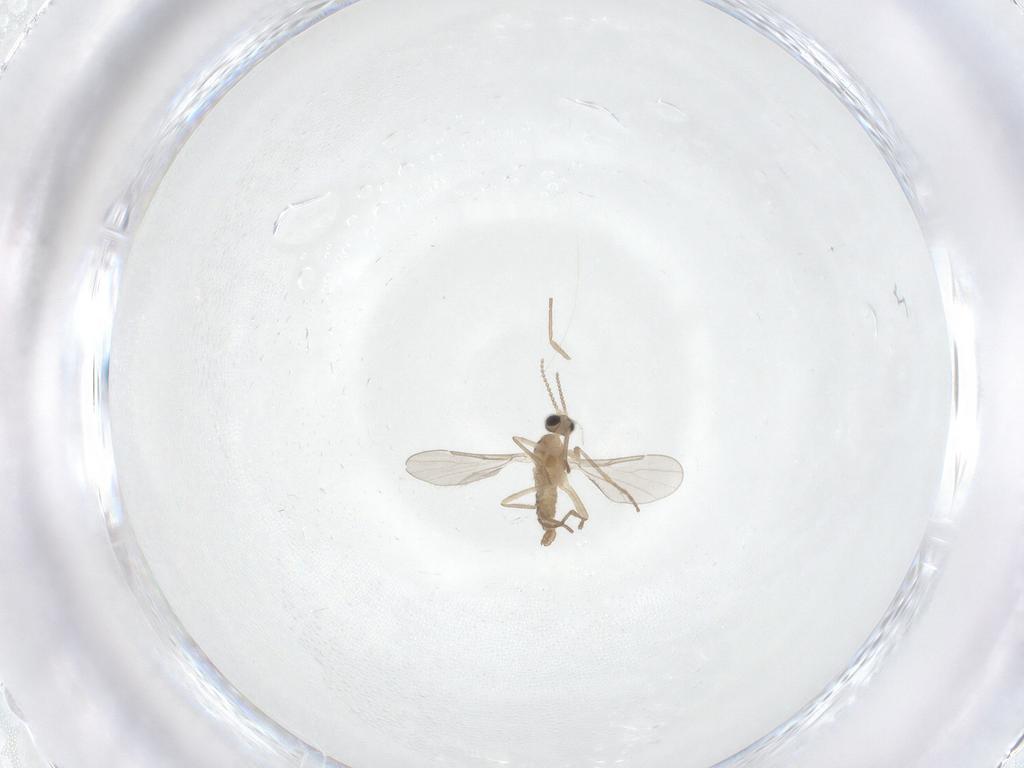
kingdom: Animalia
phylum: Arthropoda
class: Insecta
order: Diptera
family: Cecidomyiidae
